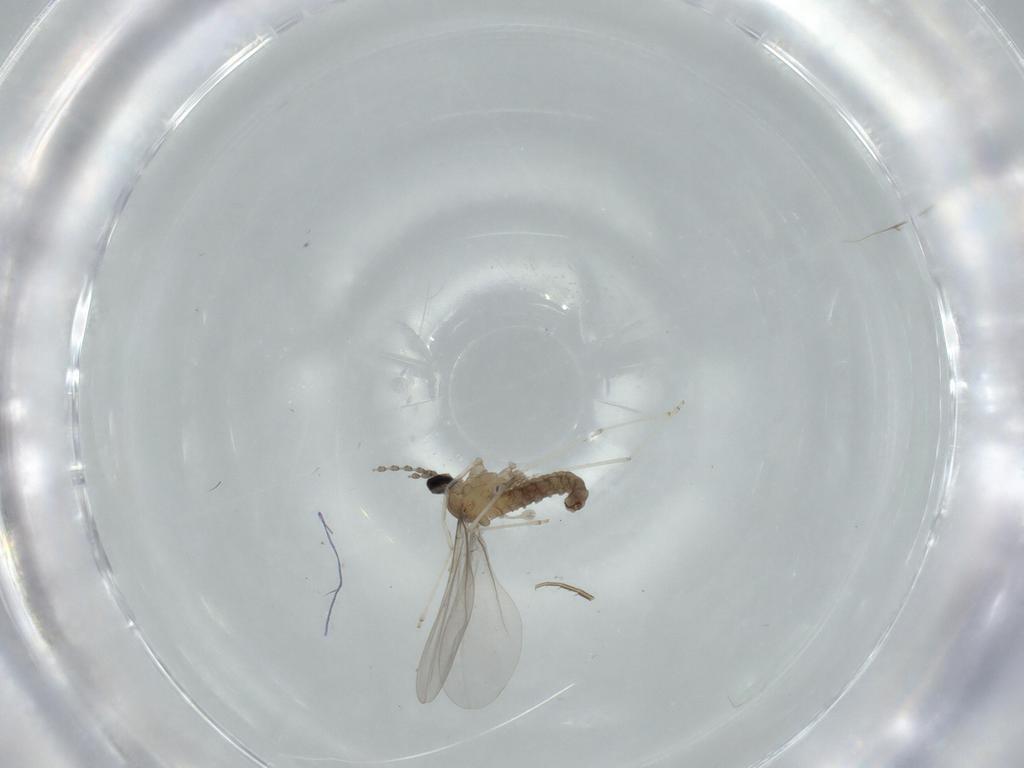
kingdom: Animalia
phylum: Arthropoda
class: Insecta
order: Diptera
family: Cecidomyiidae
